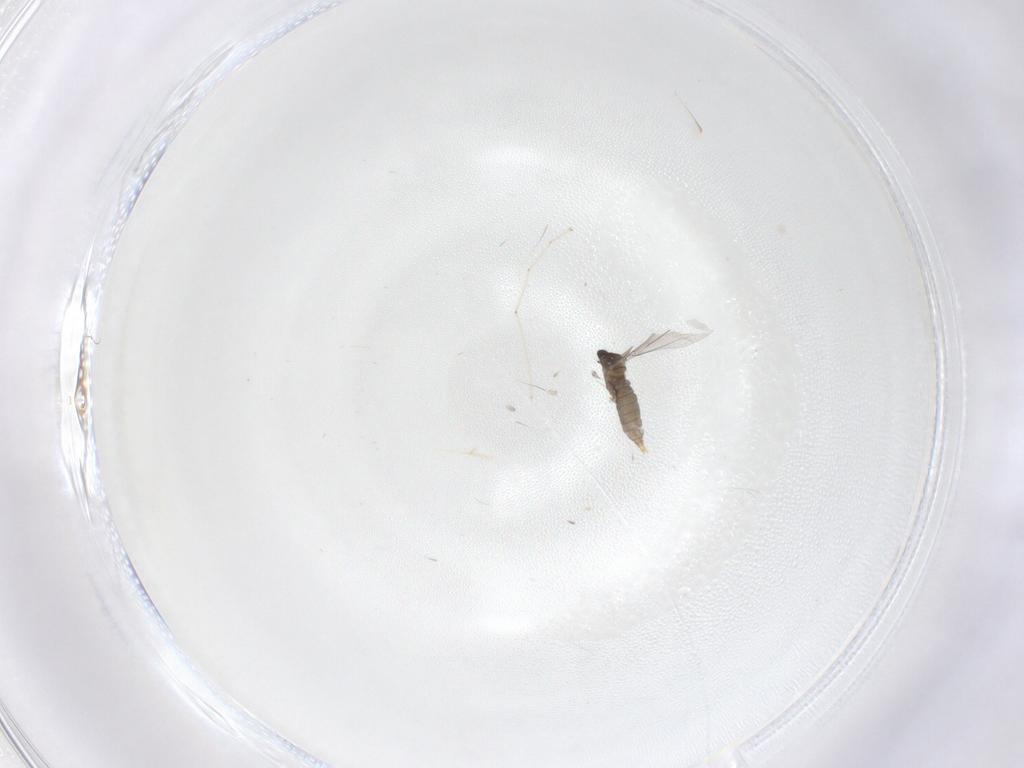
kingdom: Animalia
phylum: Arthropoda
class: Insecta
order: Diptera
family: Cecidomyiidae
